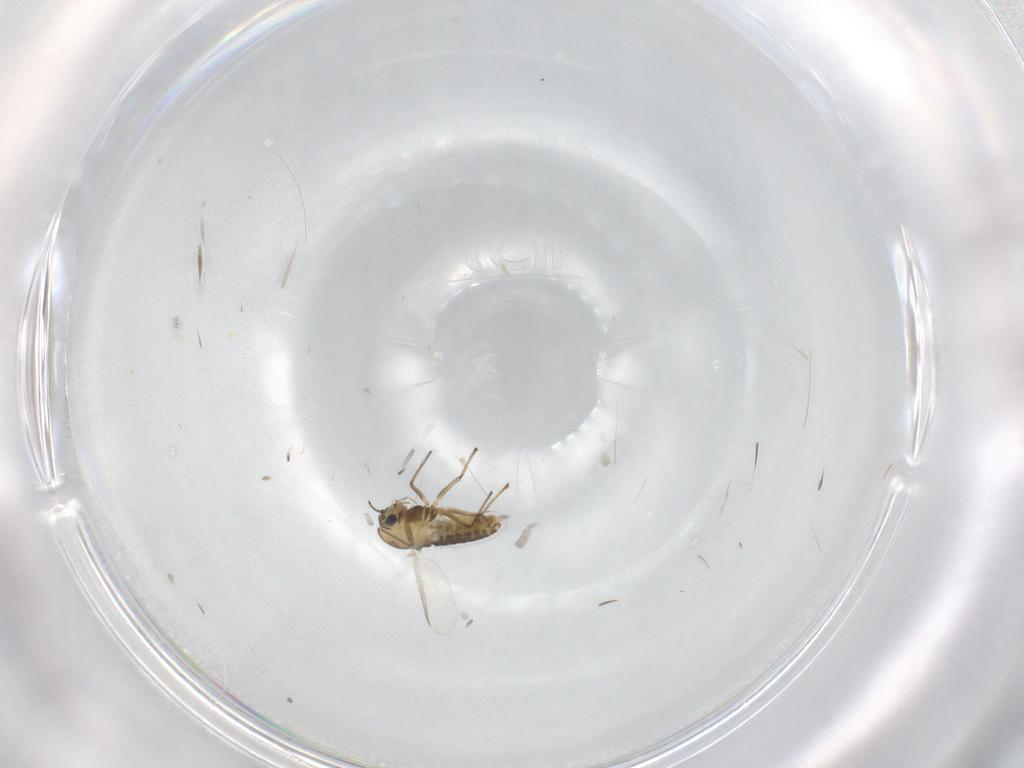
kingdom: Animalia
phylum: Arthropoda
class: Insecta
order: Diptera
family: Chironomidae
